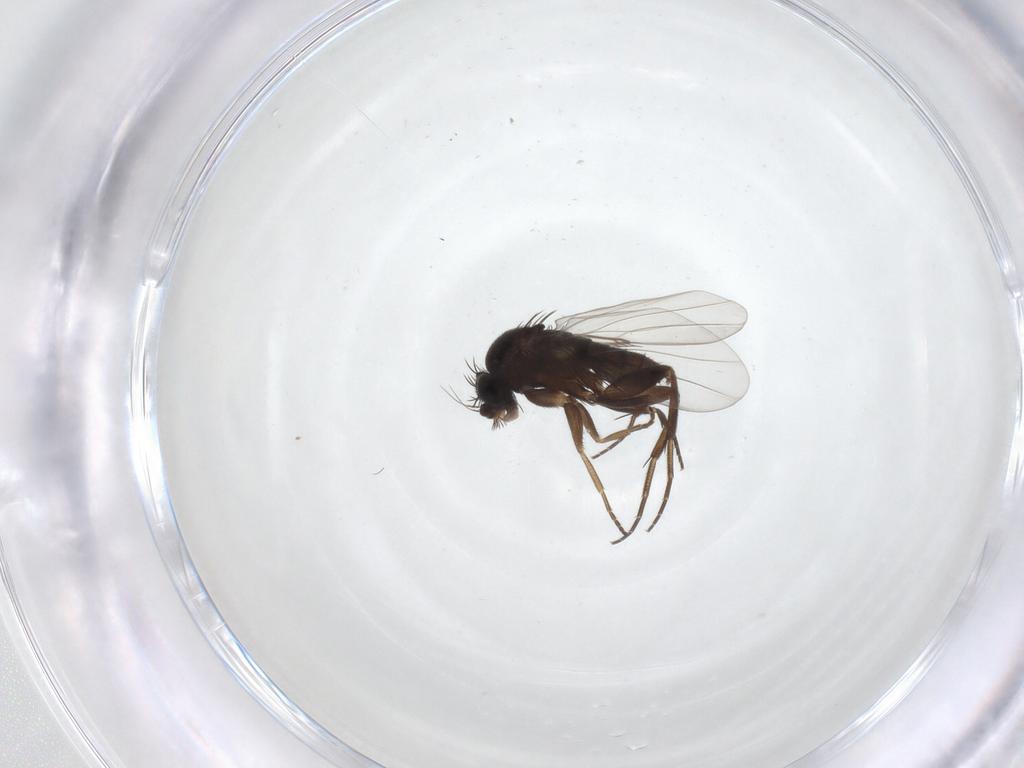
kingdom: Animalia
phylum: Arthropoda
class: Insecta
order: Diptera
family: Phoridae
